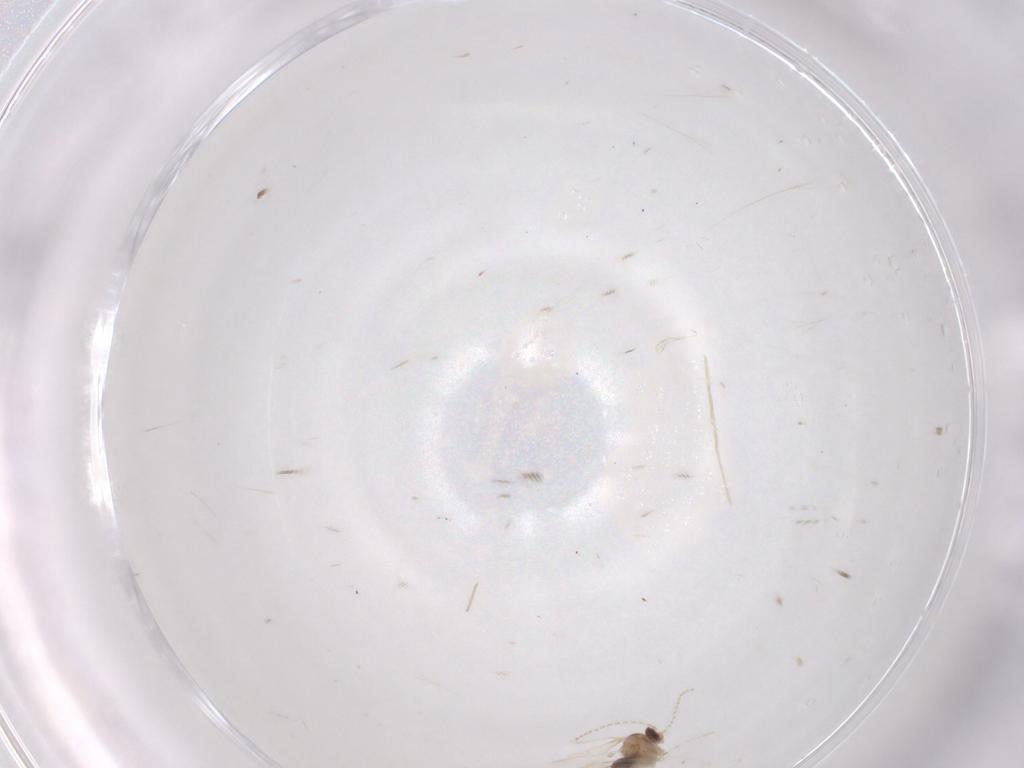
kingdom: Animalia
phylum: Arthropoda
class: Insecta
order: Diptera
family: Cecidomyiidae
